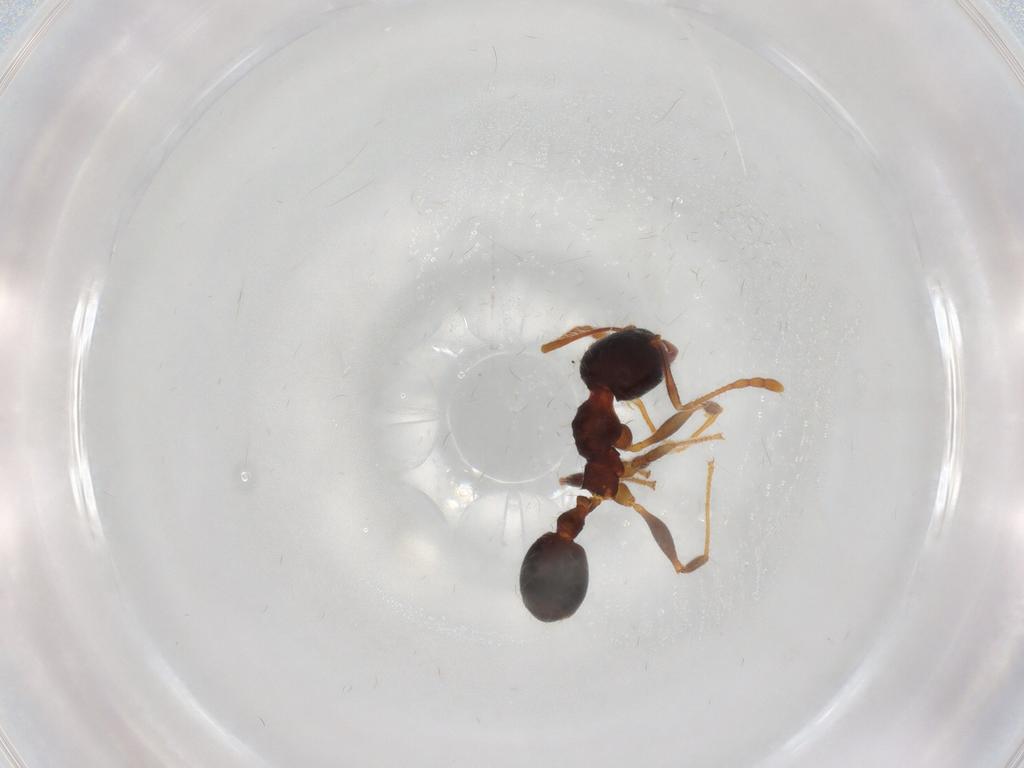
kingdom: Animalia
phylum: Arthropoda
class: Insecta
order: Hymenoptera
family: Formicidae
